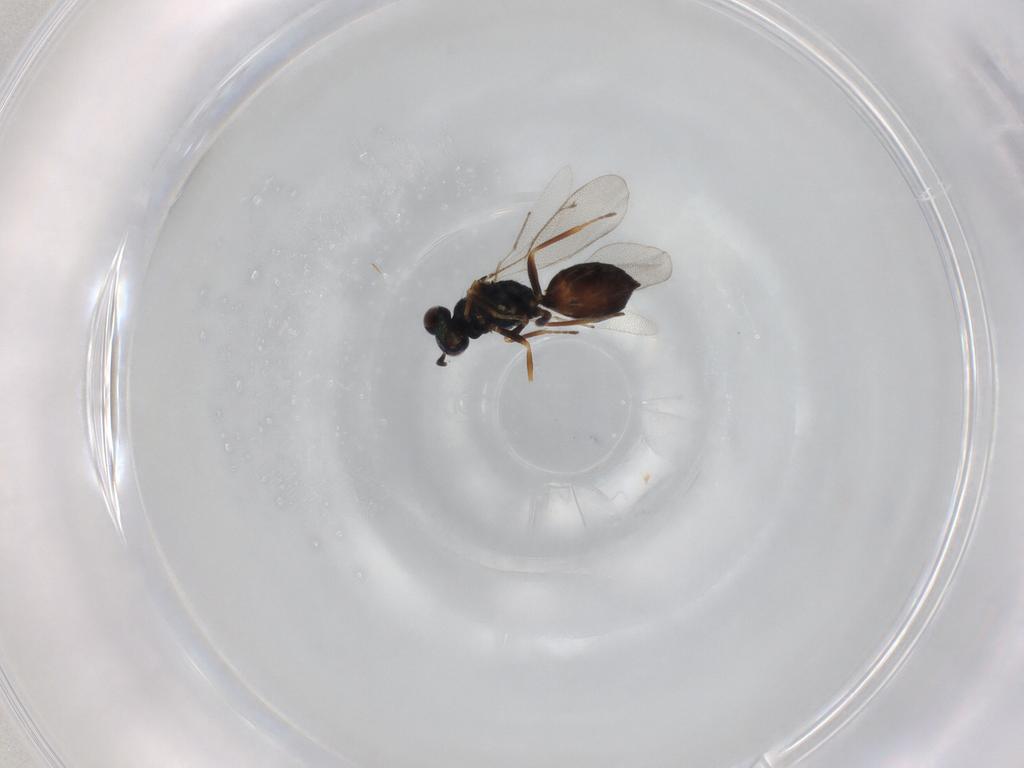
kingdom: Animalia
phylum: Arthropoda
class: Insecta
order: Hymenoptera
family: Eulophidae
